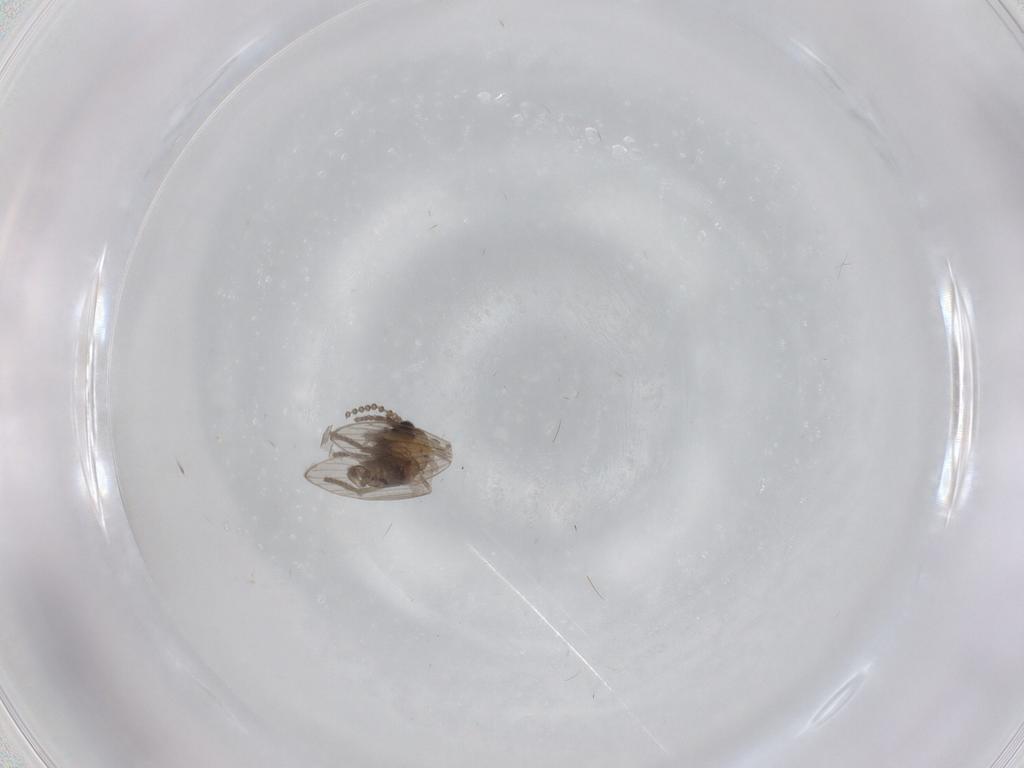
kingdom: Animalia
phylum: Arthropoda
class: Insecta
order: Diptera
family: Psychodidae
